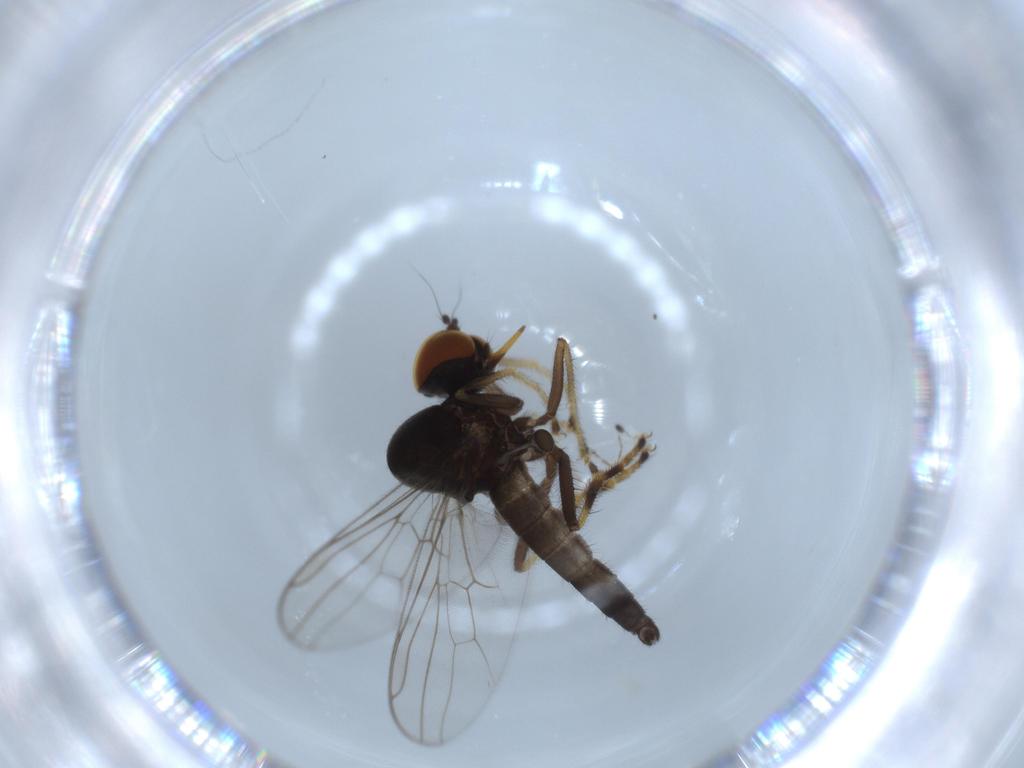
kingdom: Animalia
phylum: Arthropoda
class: Insecta
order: Diptera
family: Hybotidae
